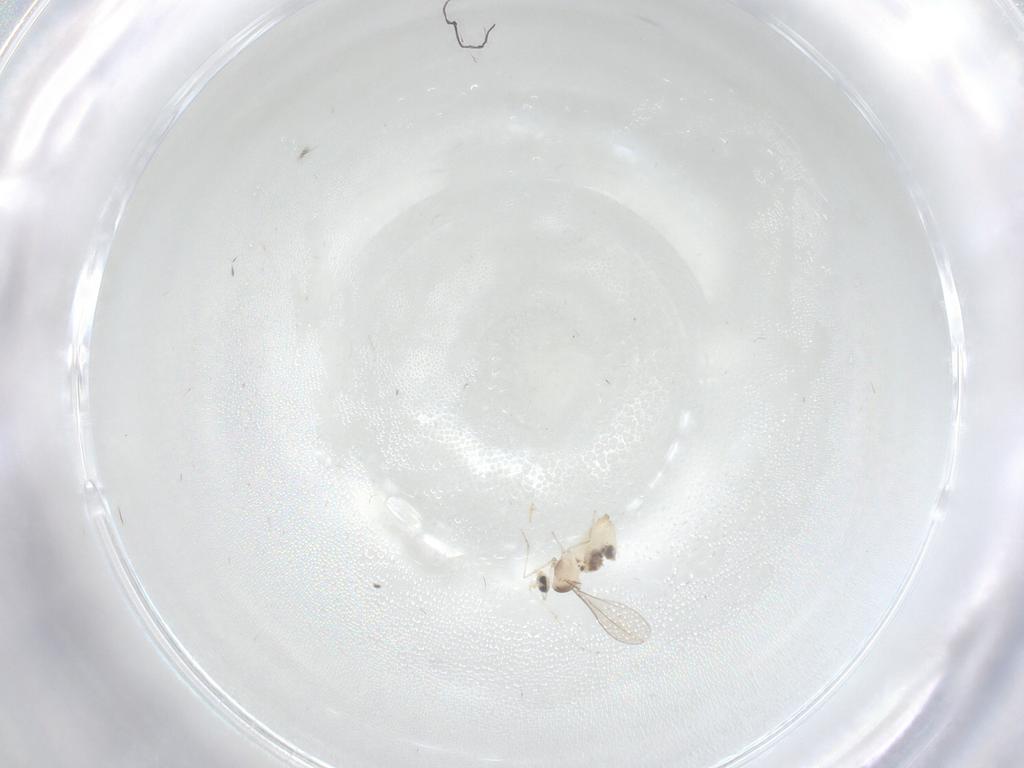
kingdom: Animalia
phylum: Arthropoda
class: Insecta
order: Diptera
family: Cecidomyiidae
